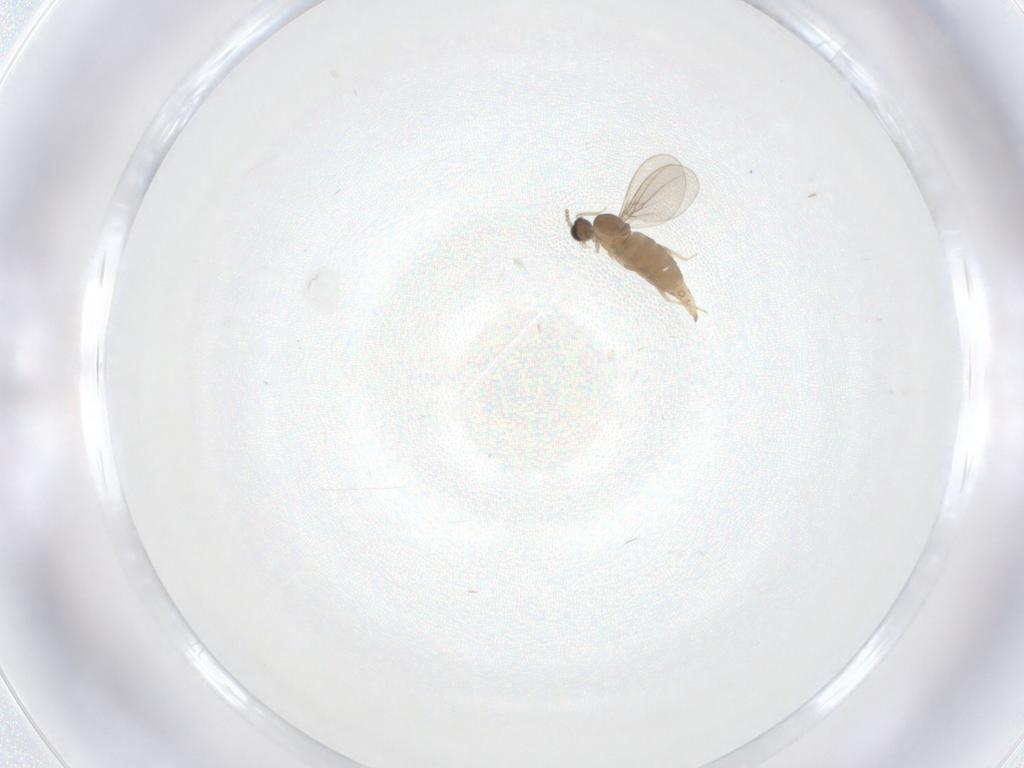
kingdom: Animalia
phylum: Arthropoda
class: Insecta
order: Diptera
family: Cecidomyiidae
